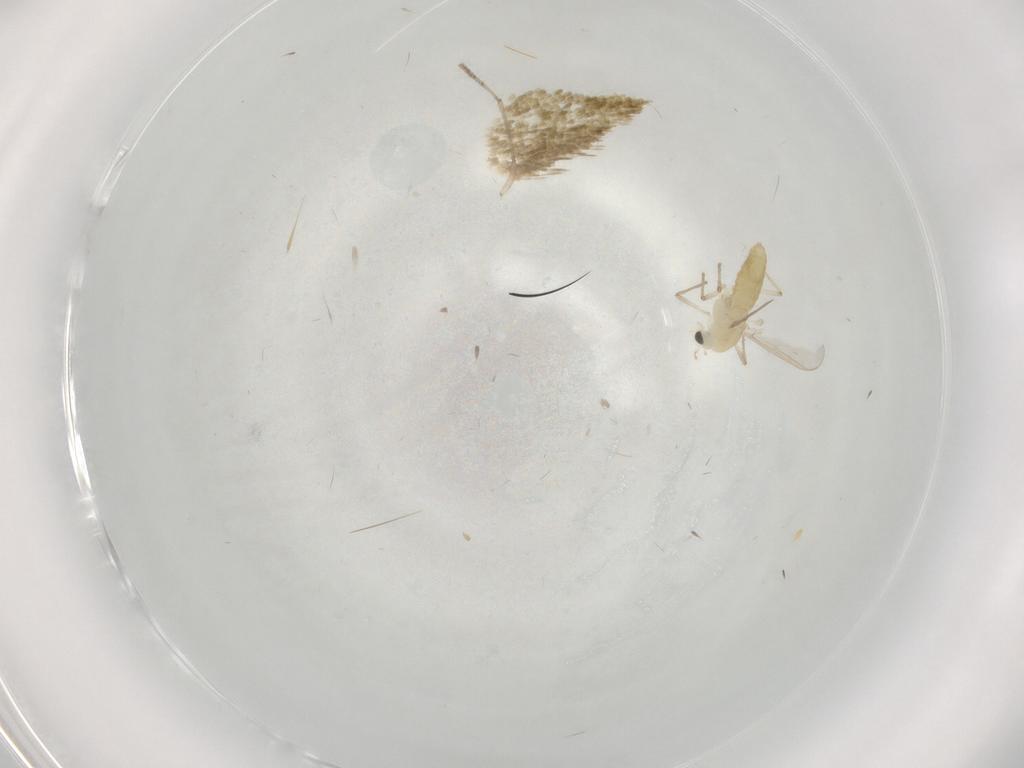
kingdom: Animalia
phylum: Arthropoda
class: Insecta
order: Diptera
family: Psychodidae
